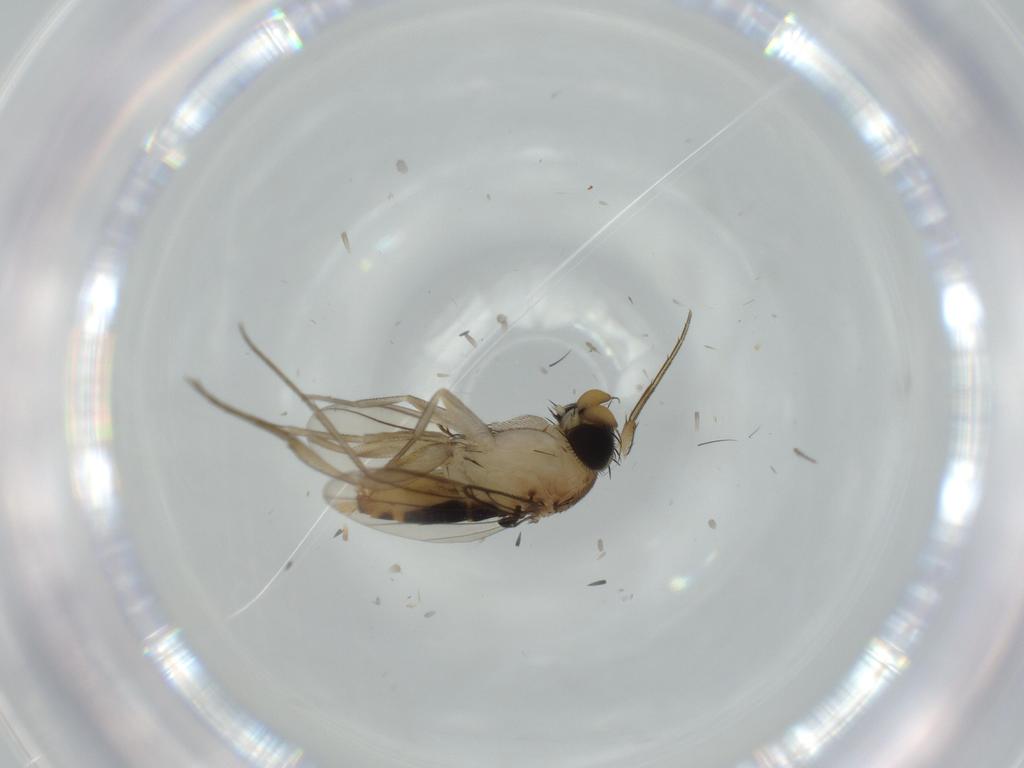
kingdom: Animalia
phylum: Arthropoda
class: Insecta
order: Diptera
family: Phoridae
